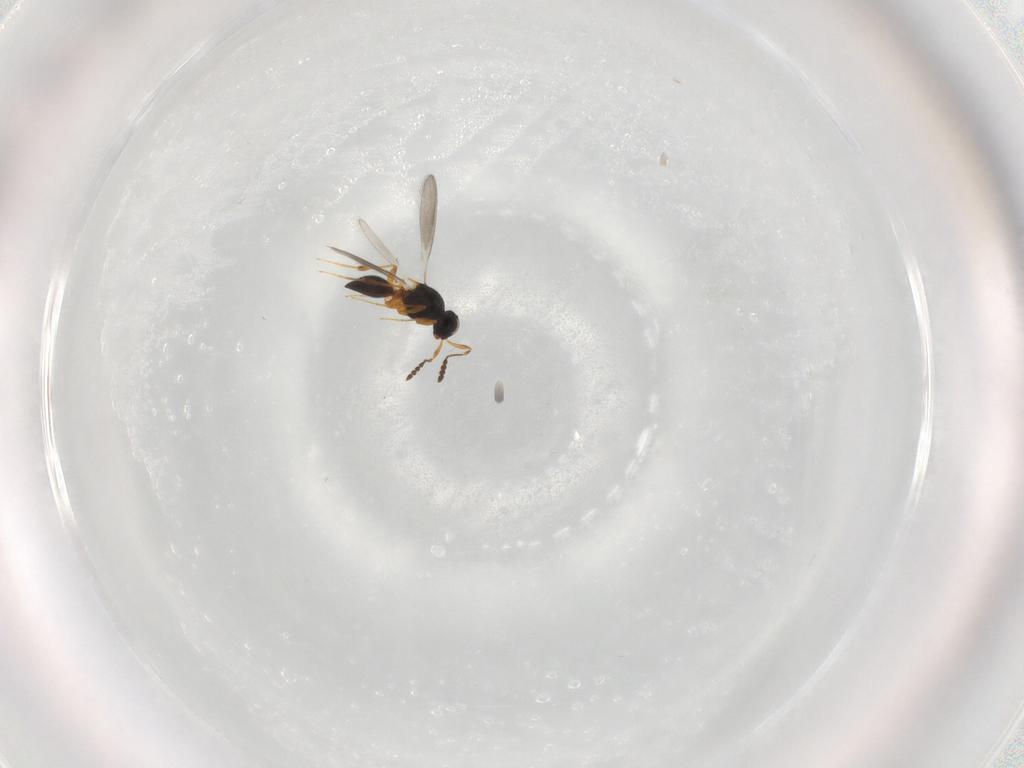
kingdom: Animalia
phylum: Arthropoda
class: Insecta
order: Hymenoptera
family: Platygastridae
